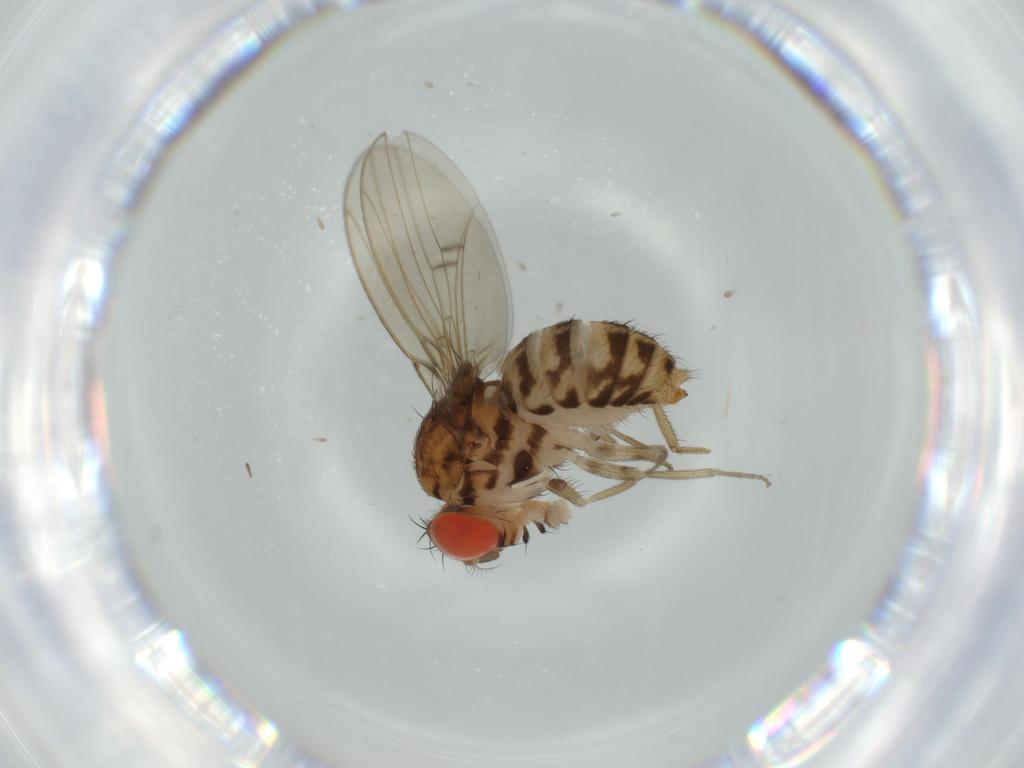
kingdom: Animalia
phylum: Arthropoda
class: Insecta
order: Diptera
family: Drosophilidae
